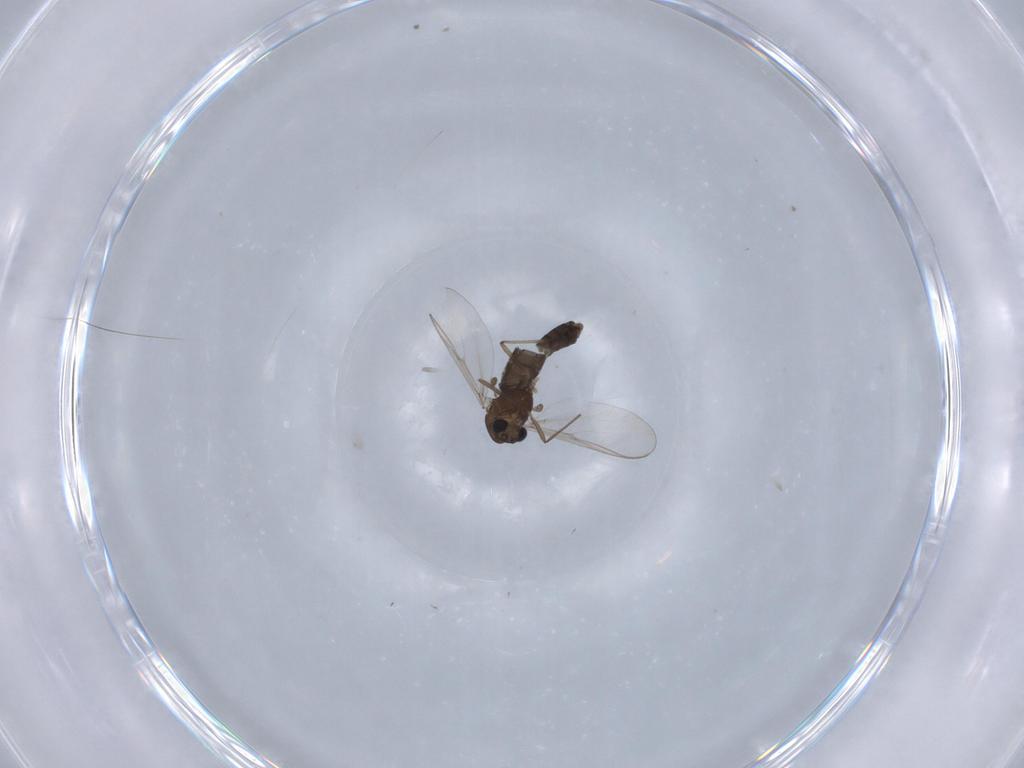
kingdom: Animalia
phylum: Arthropoda
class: Insecta
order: Diptera
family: Chironomidae
